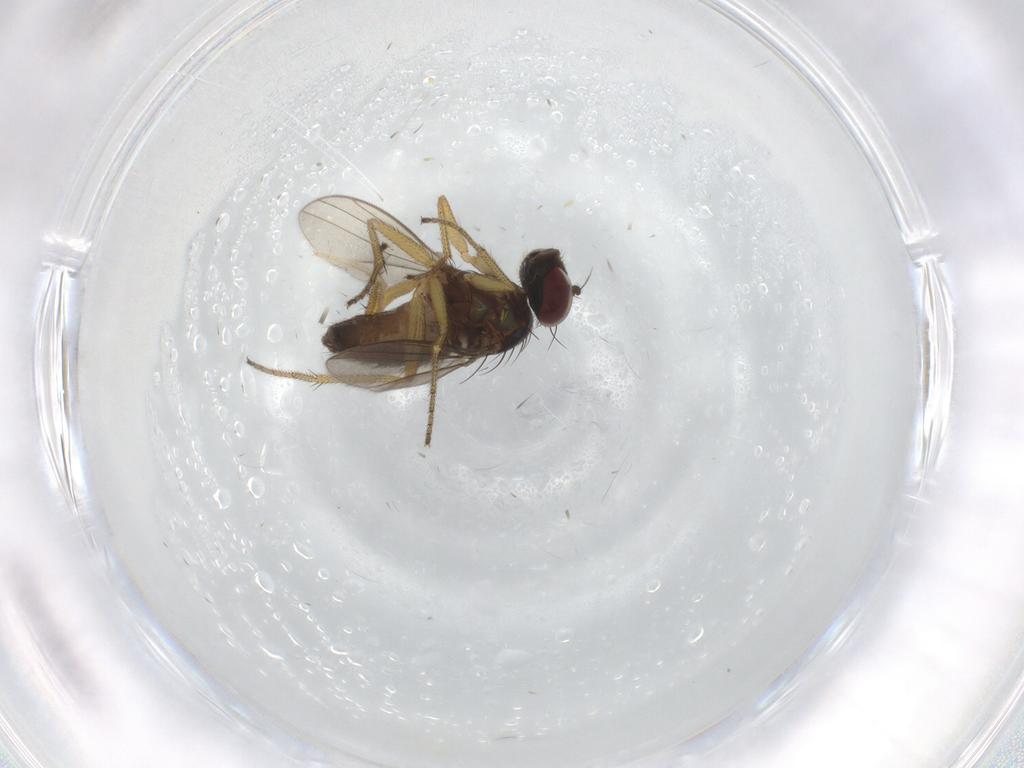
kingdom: Animalia
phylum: Arthropoda
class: Insecta
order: Diptera
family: Chironomidae
